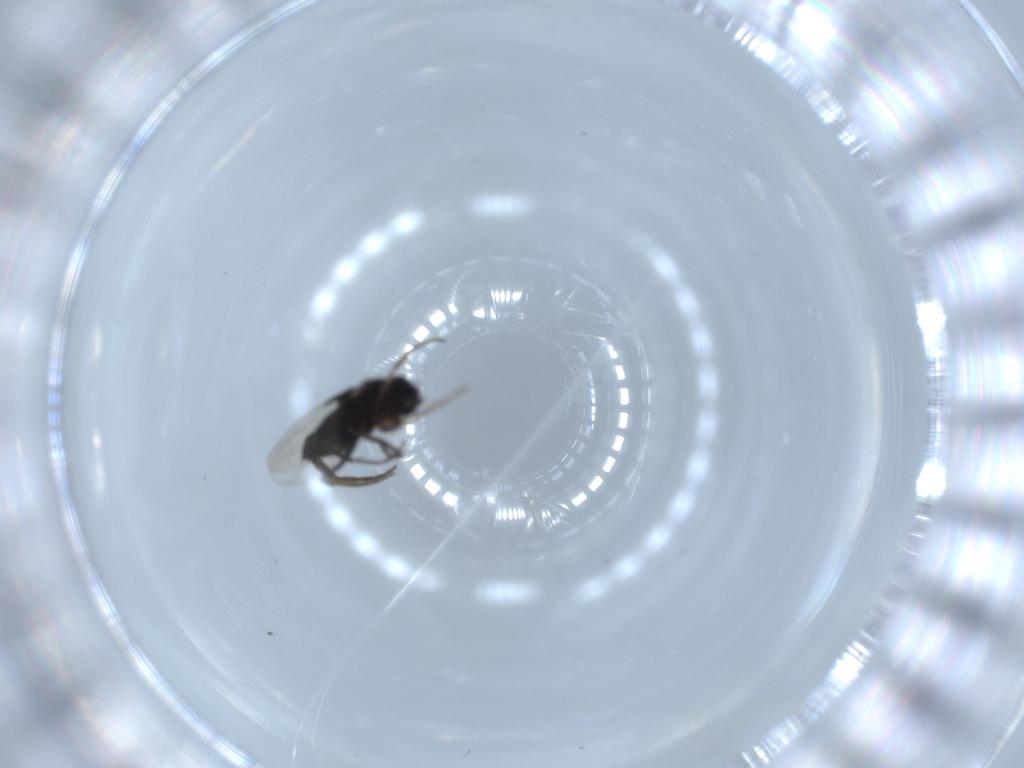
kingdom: Animalia
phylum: Arthropoda
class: Insecta
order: Diptera
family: Phoridae
